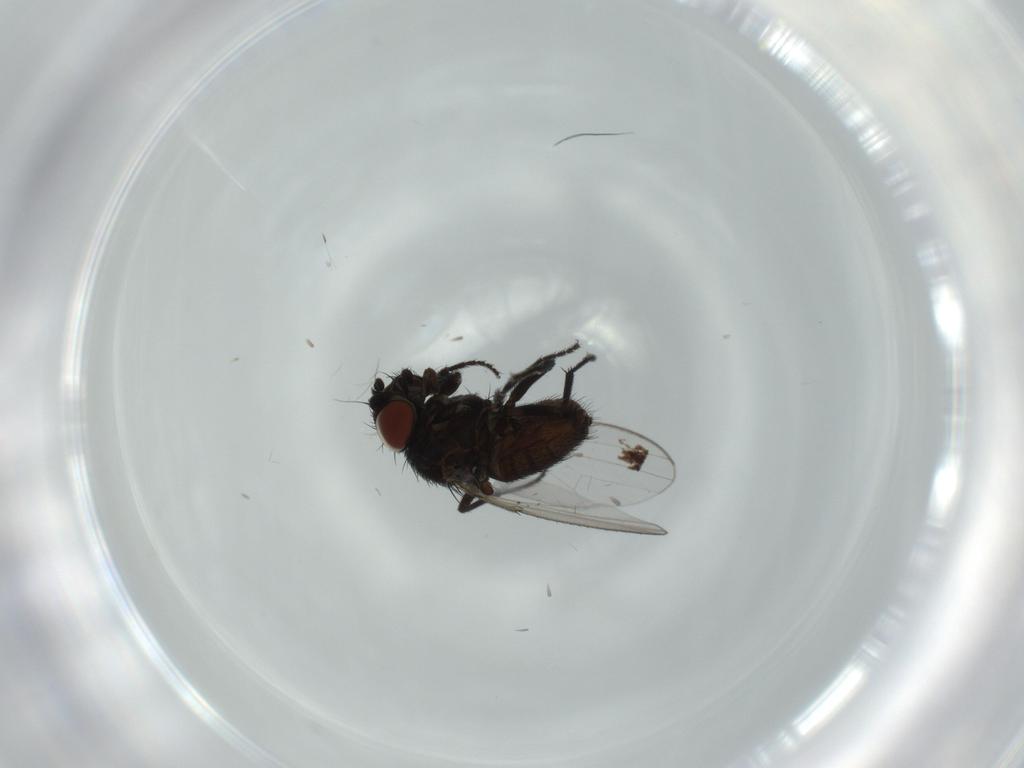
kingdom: Animalia
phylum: Arthropoda
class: Insecta
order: Diptera
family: Milichiidae
